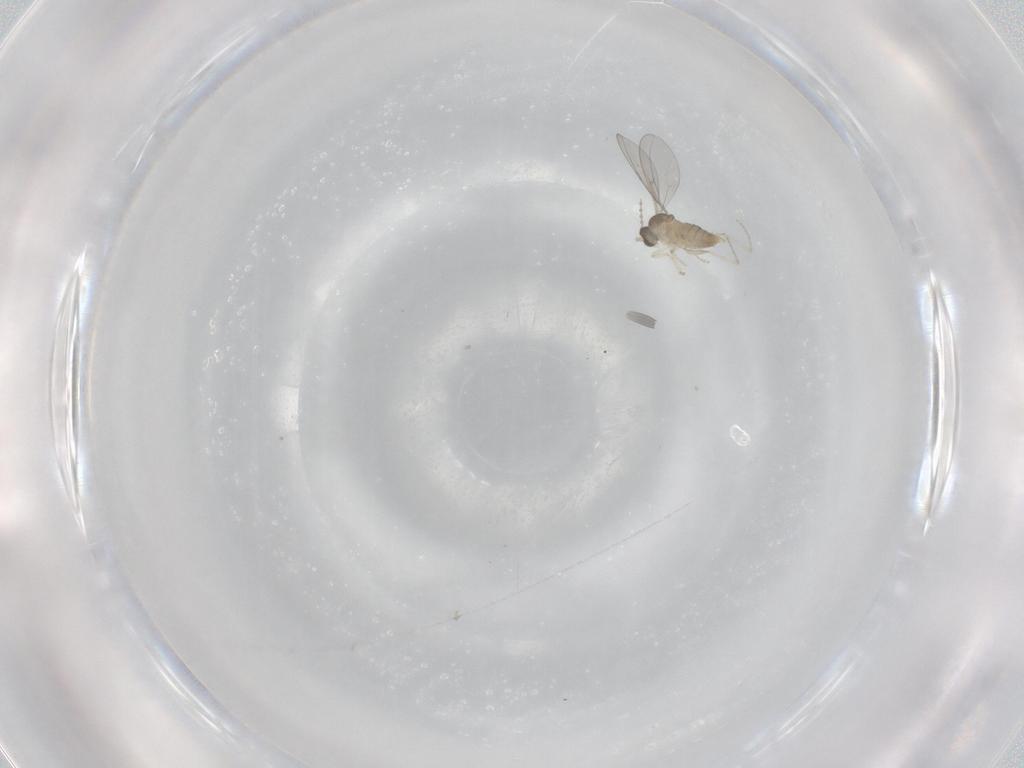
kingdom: Animalia
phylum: Arthropoda
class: Insecta
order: Diptera
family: Cecidomyiidae
